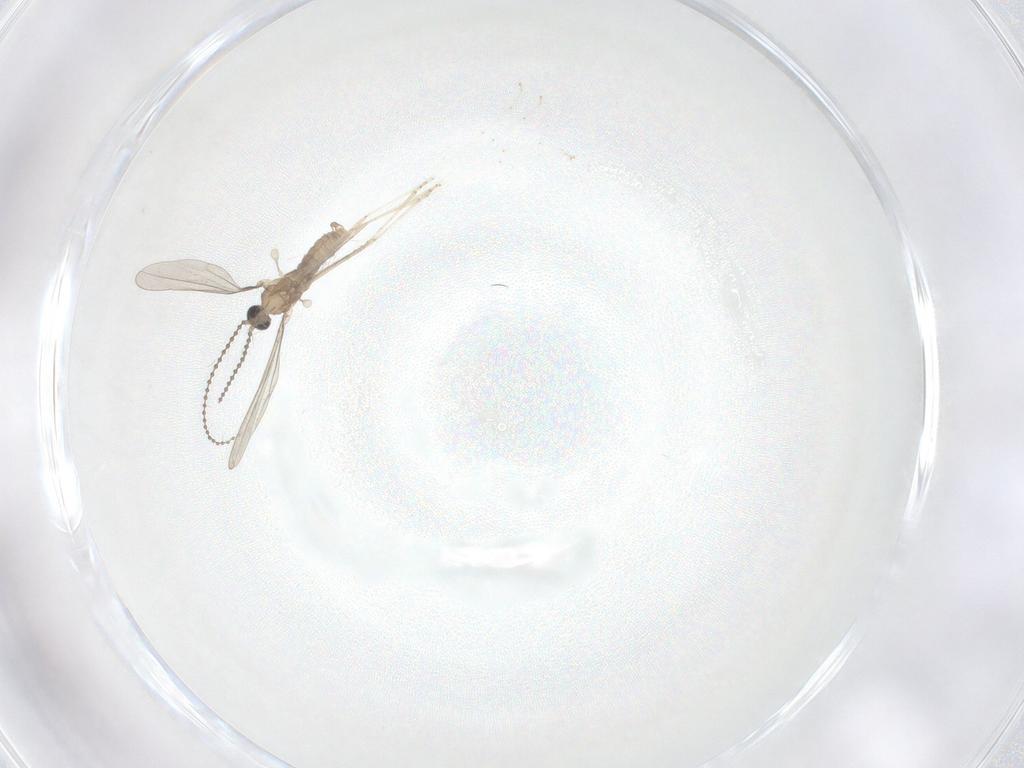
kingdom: Animalia
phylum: Arthropoda
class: Insecta
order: Diptera
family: Cecidomyiidae
